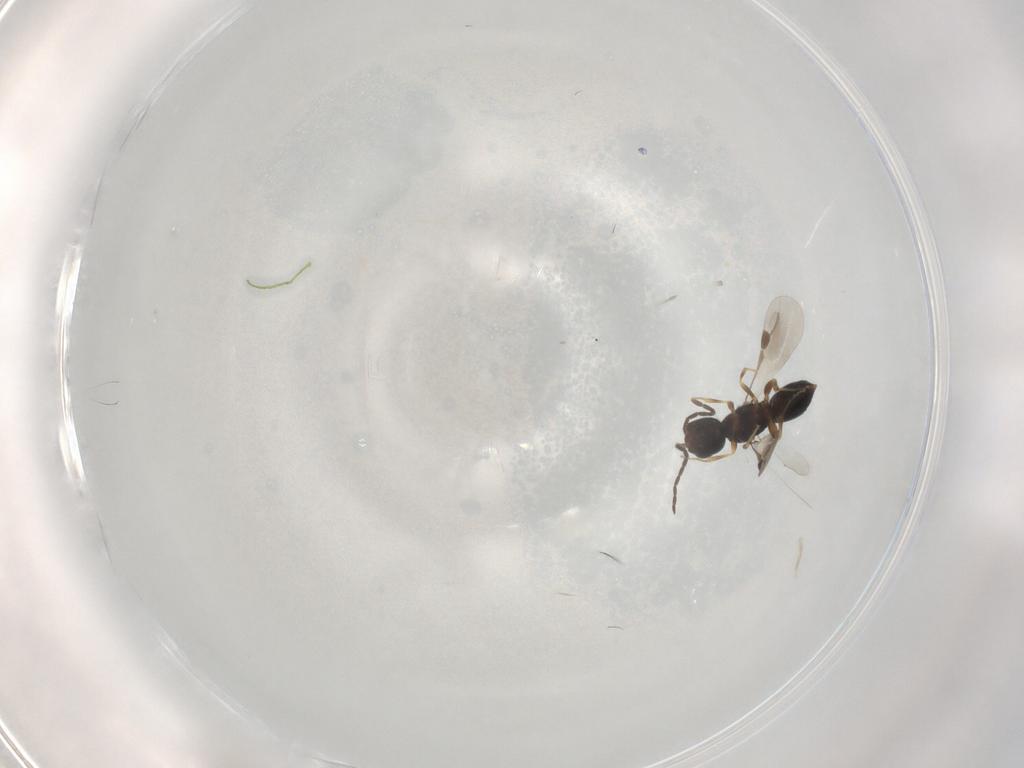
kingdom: Animalia
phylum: Arthropoda
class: Insecta
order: Hymenoptera
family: Megaspilidae
